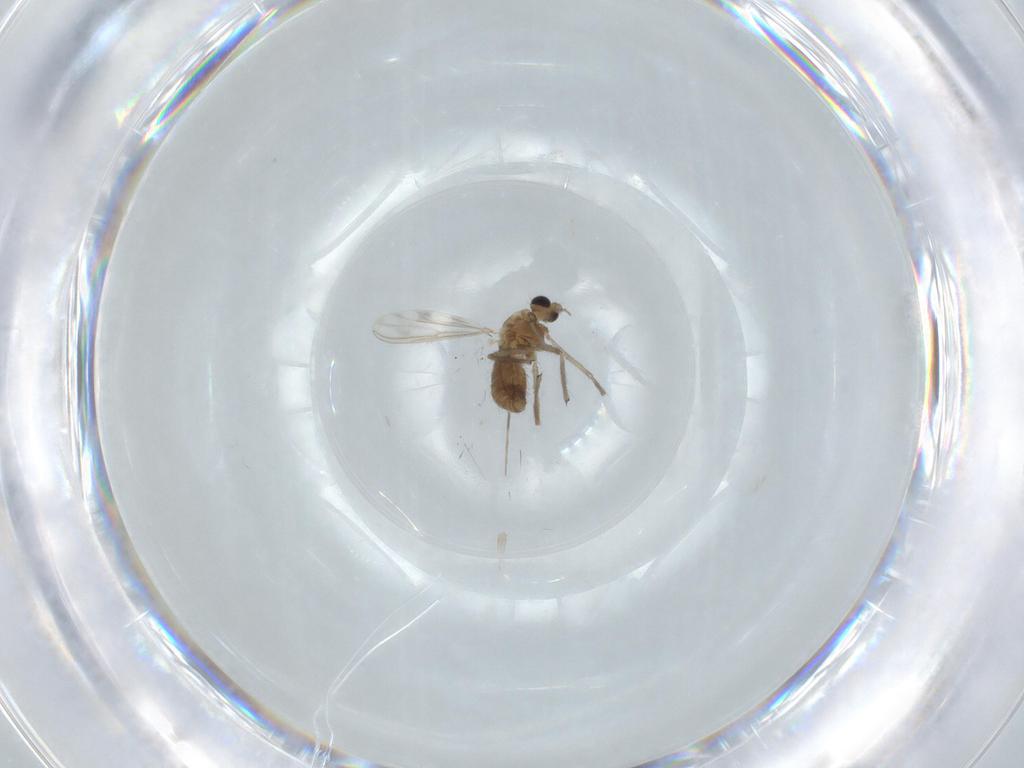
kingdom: Animalia
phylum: Arthropoda
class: Insecta
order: Diptera
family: Chironomidae
